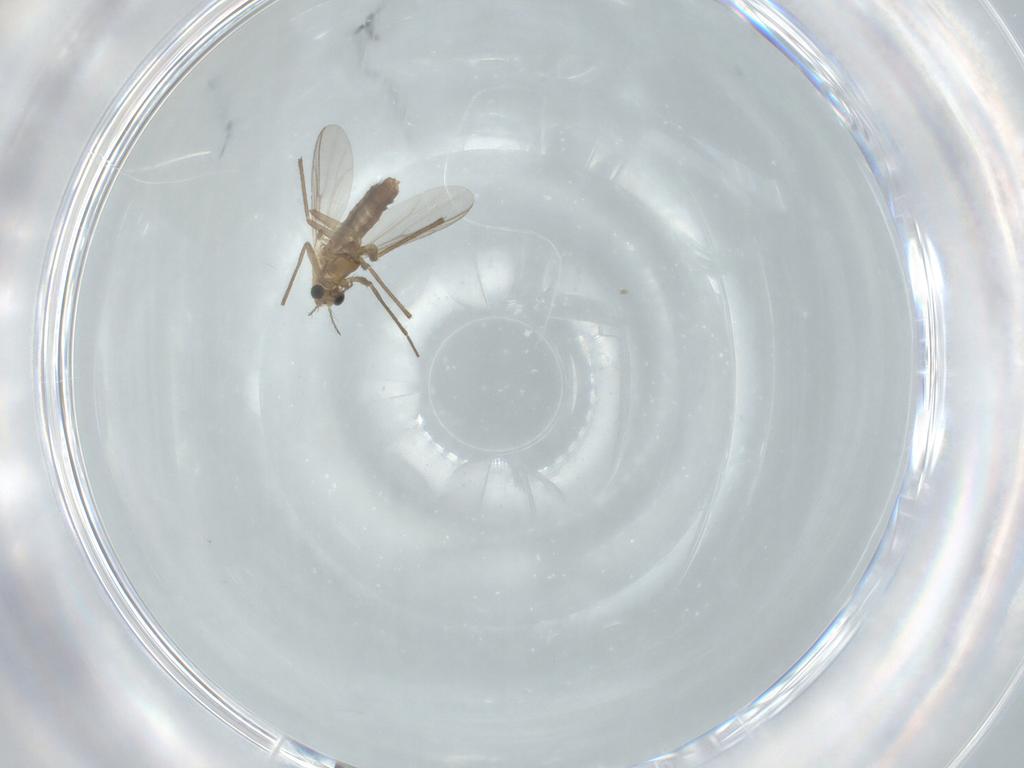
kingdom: Animalia
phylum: Arthropoda
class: Insecta
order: Diptera
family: Chironomidae
